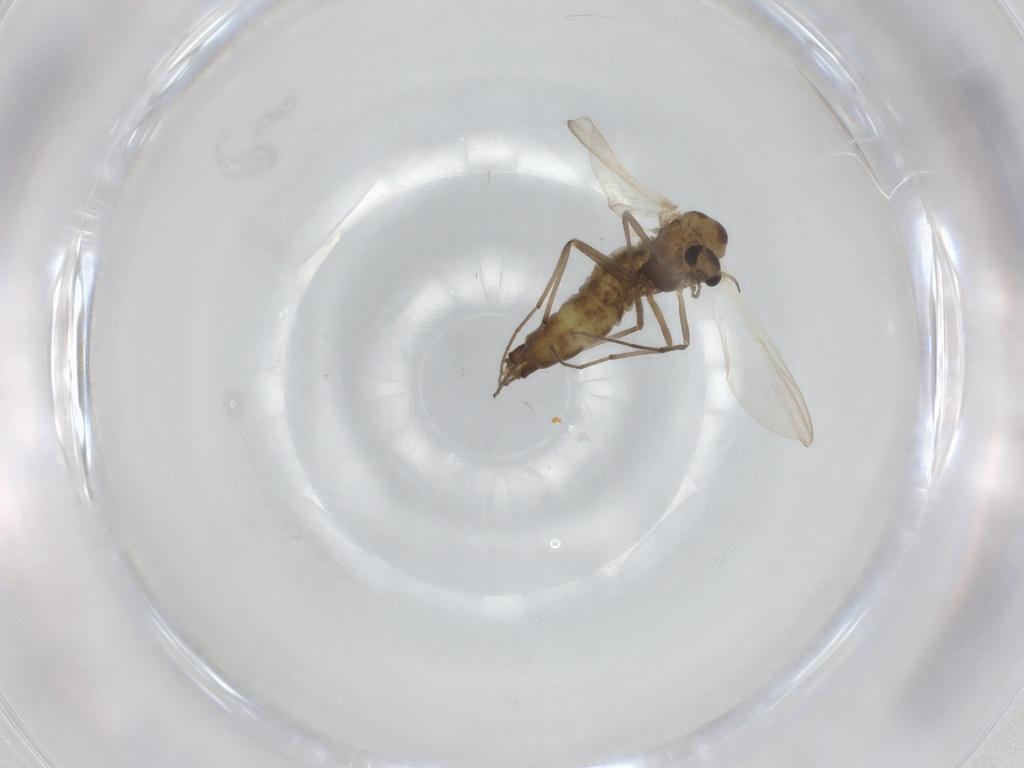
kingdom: Animalia
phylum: Arthropoda
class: Insecta
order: Diptera
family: Chironomidae
